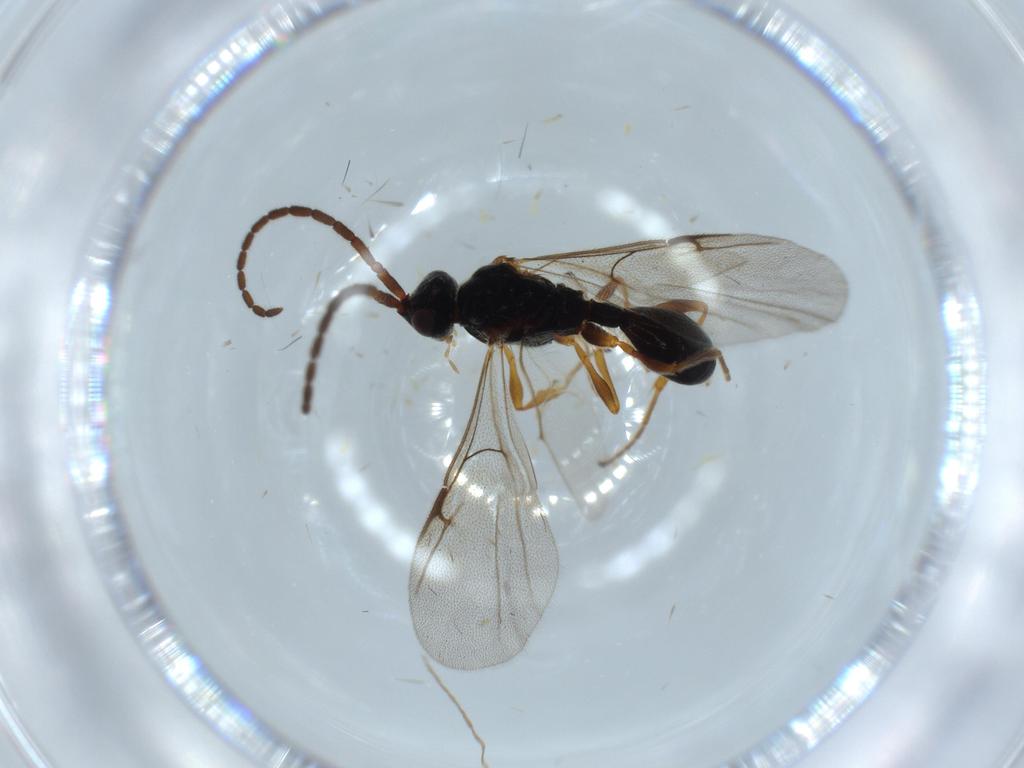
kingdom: Animalia
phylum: Arthropoda
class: Insecta
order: Hymenoptera
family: Ichneumonidae
